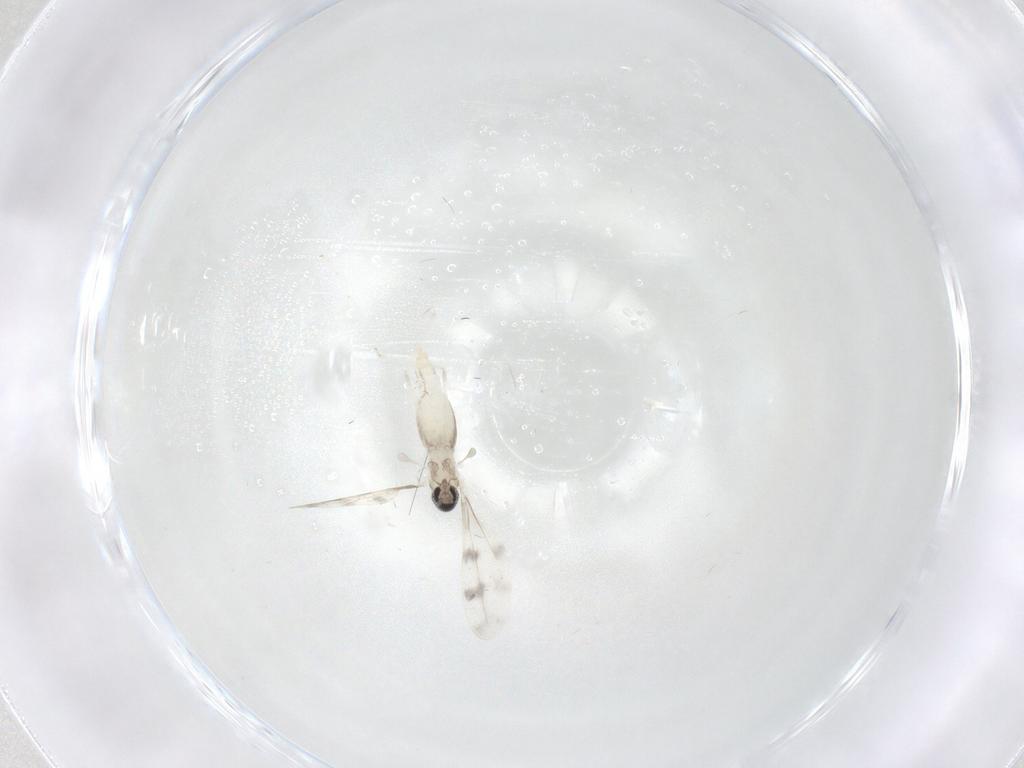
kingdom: Animalia
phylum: Arthropoda
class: Insecta
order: Diptera
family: Cecidomyiidae
